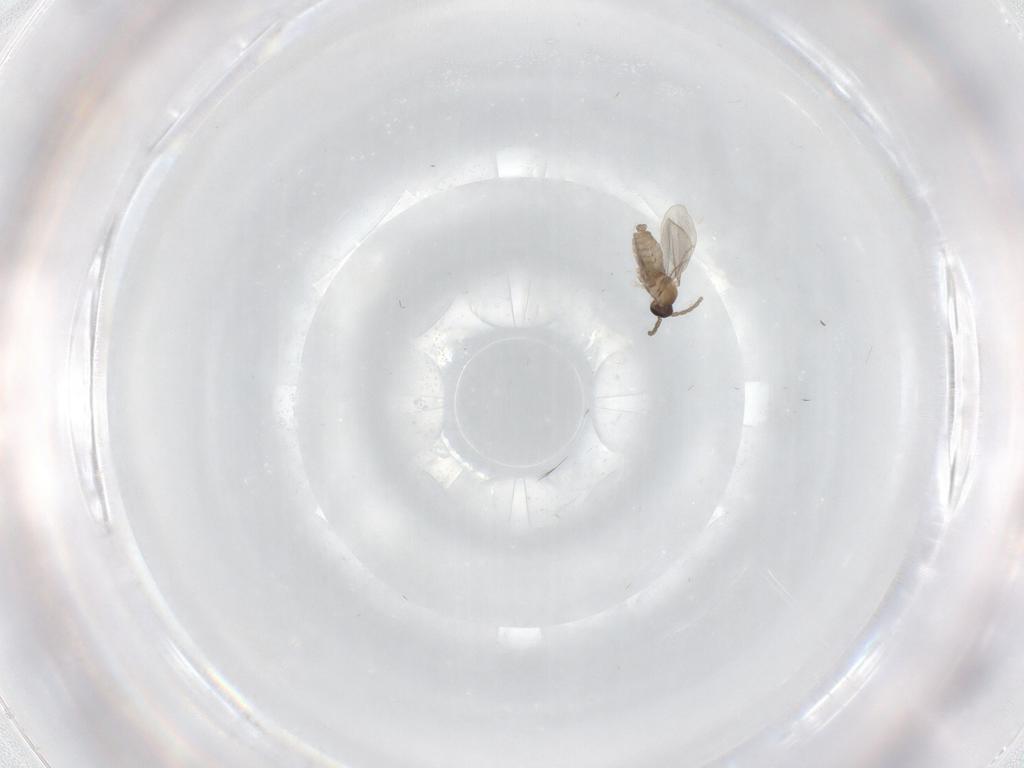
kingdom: Animalia
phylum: Arthropoda
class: Insecta
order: Diptera
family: Cecidomyiidae
